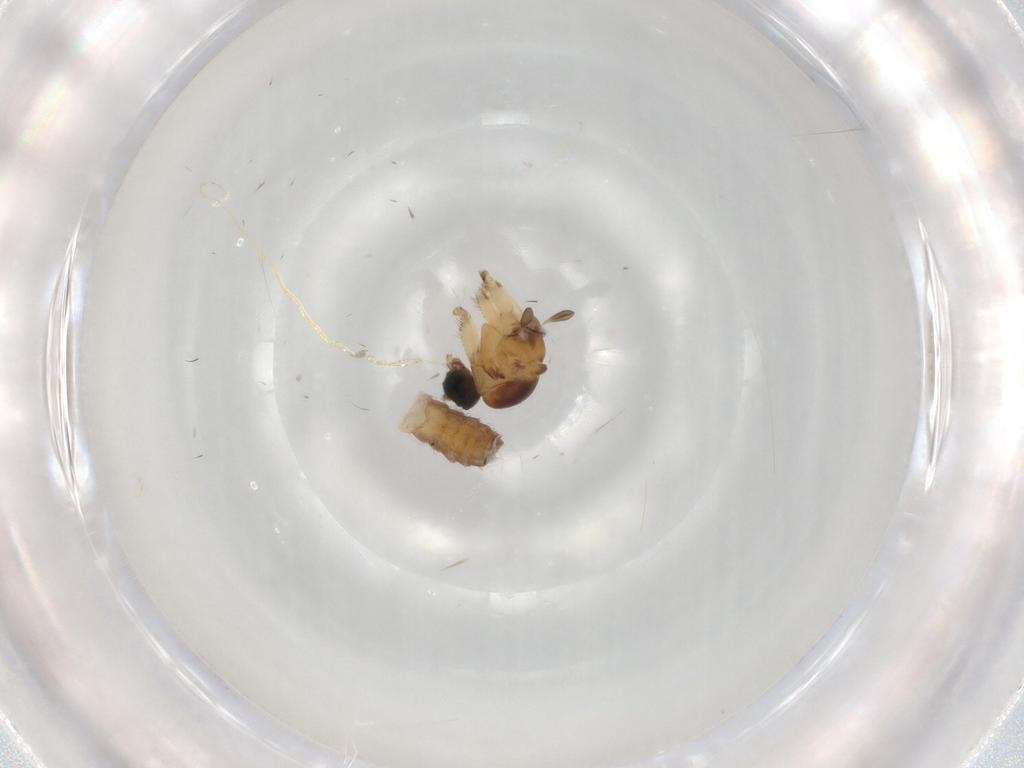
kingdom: Animalia
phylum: Arthropoda
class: Insecta
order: Diptera
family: Sciaridae
